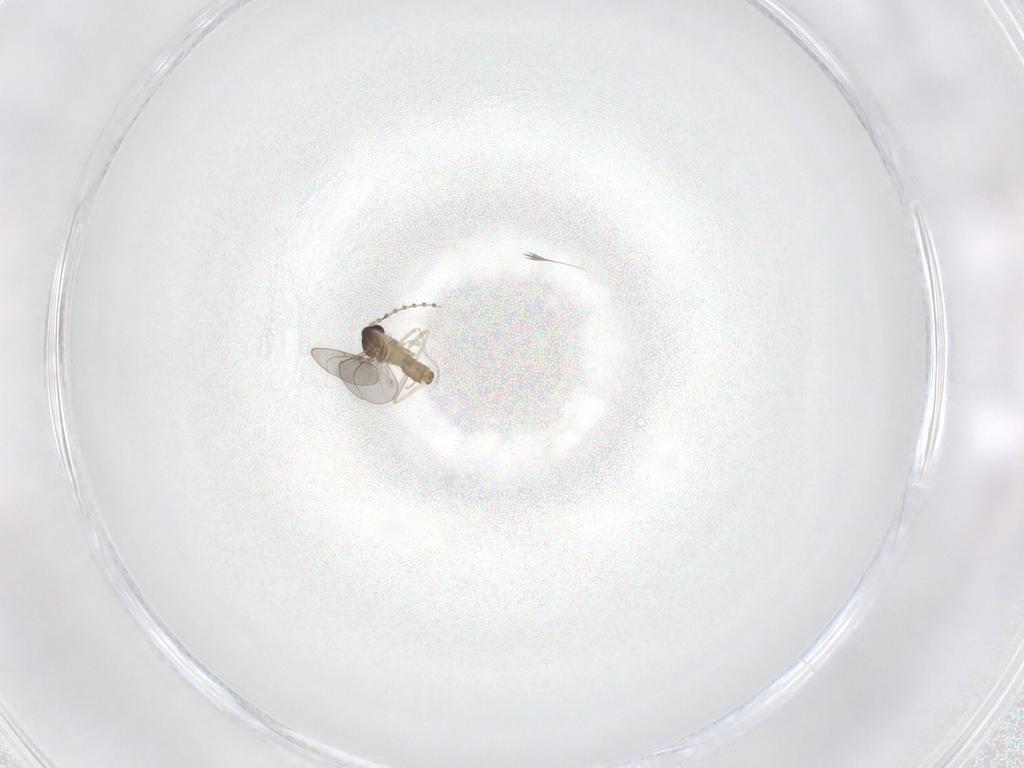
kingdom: Animalia
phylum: Arthropoda
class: Insecta
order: Diptera
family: Cecidomyiidae
